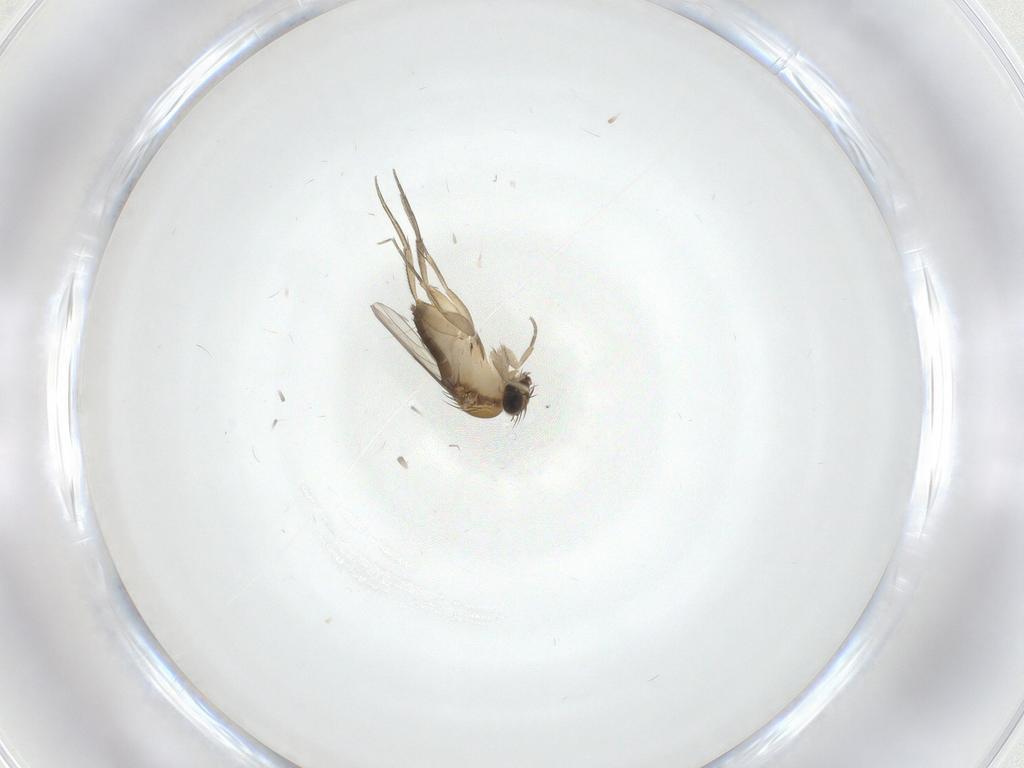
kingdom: Animalia
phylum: Arthropoda
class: Insecta
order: Diptera
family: Phoridae
